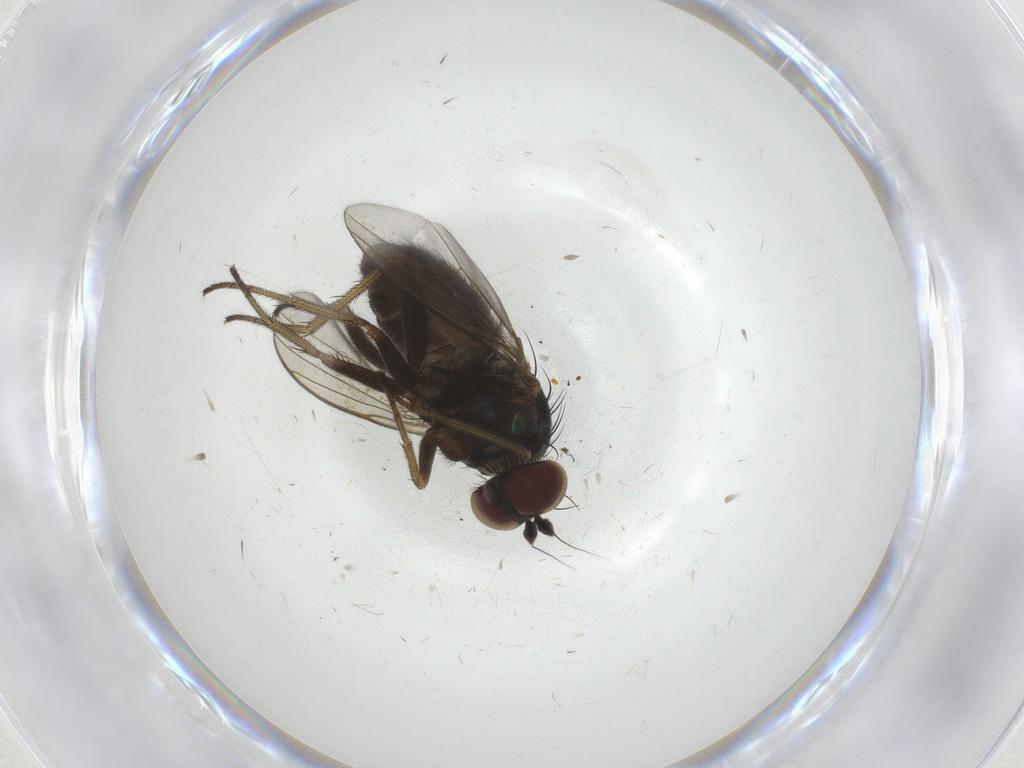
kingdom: Animalia
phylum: Arthropoda
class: Insecta
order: Diptera
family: Dolichopodidae
